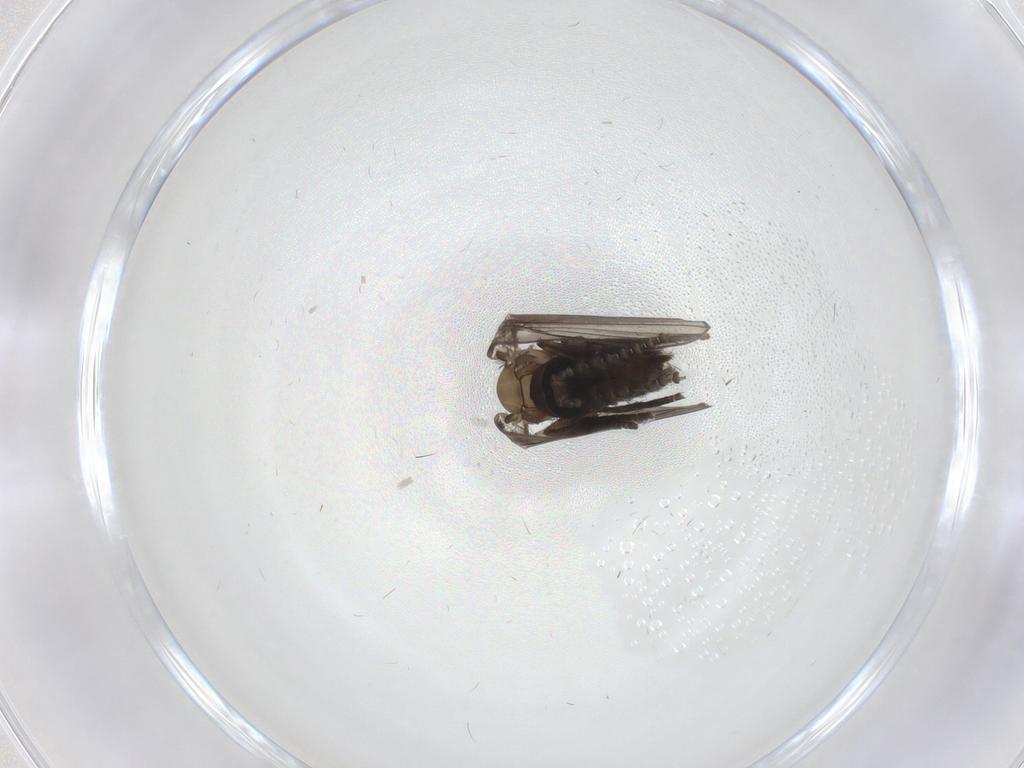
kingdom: Animalia
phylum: Arthropoda
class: Insecta
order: Diptera
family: Psychodidae
